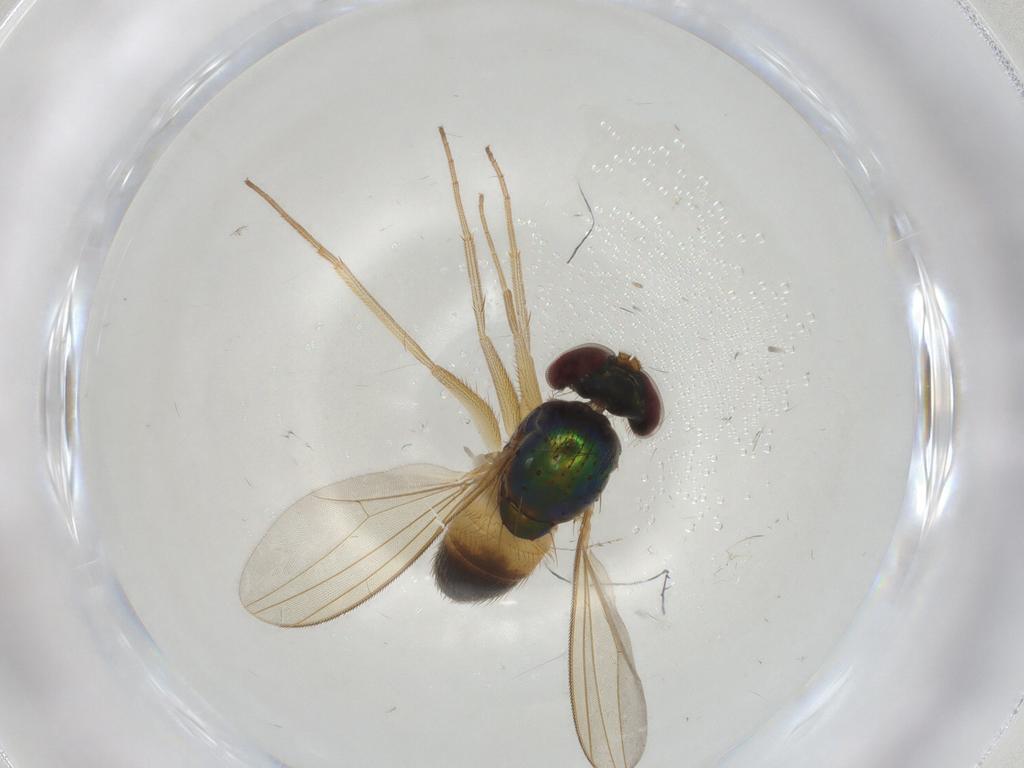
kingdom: Animalia
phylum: Arthropoda
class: Insecta
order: Diptera
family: Dolichopodidae
